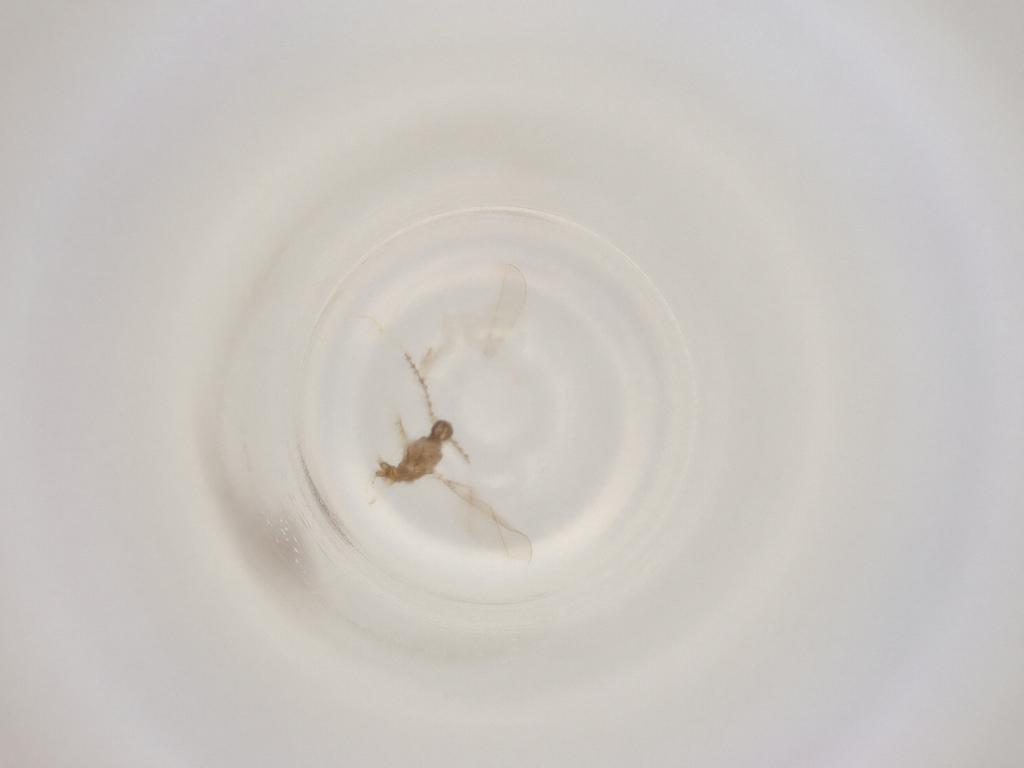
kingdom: Animalia
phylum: Arthropoda
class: Insecta
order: Diptera
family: Cecidomyiidae
